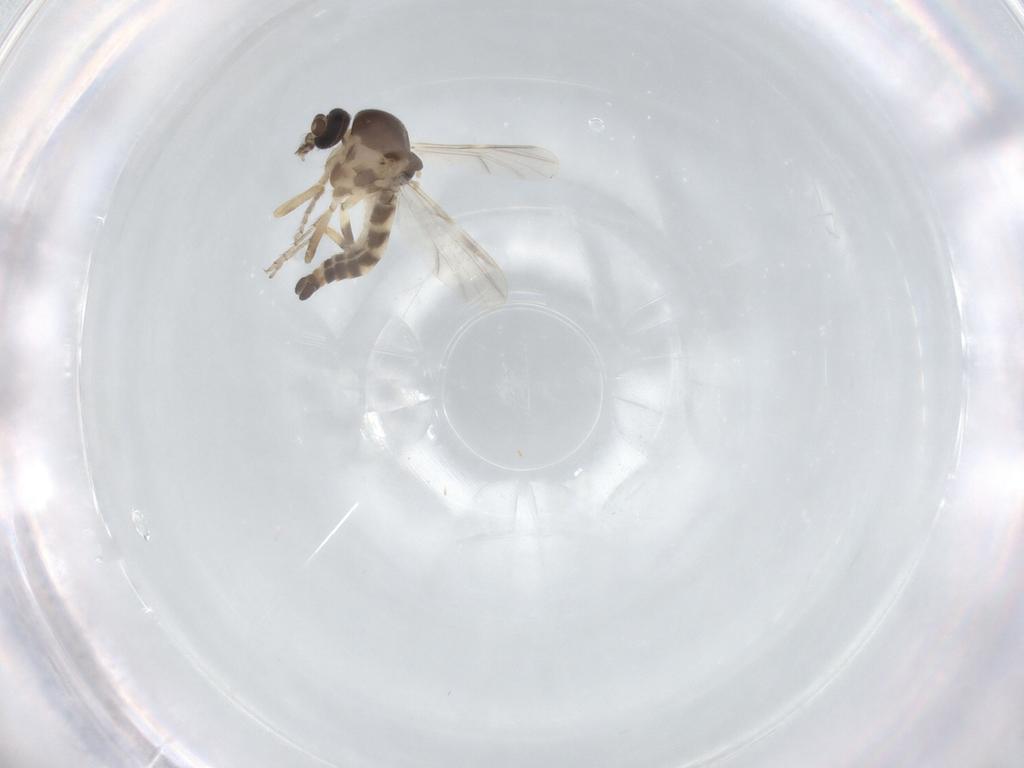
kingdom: Animalia
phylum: Arthropoda
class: Insecta
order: Diptera
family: Ceratopogonidae
